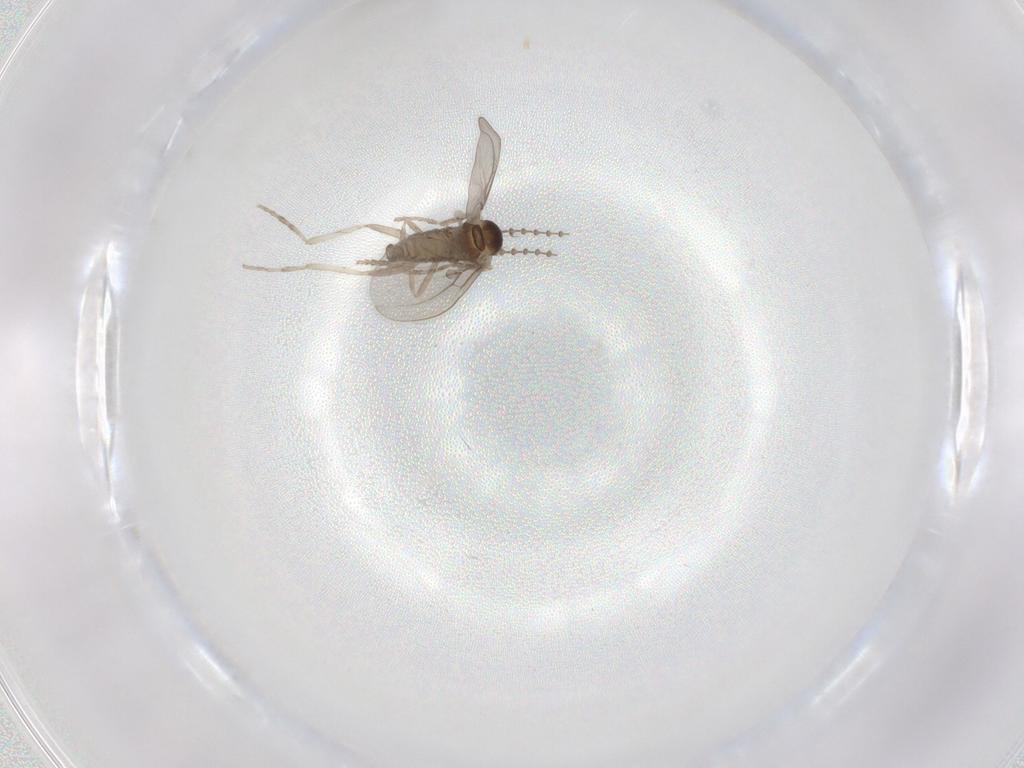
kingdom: Animalia
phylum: Arthropoda
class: Insecta
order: Diptera
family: Cecidomyiidae
